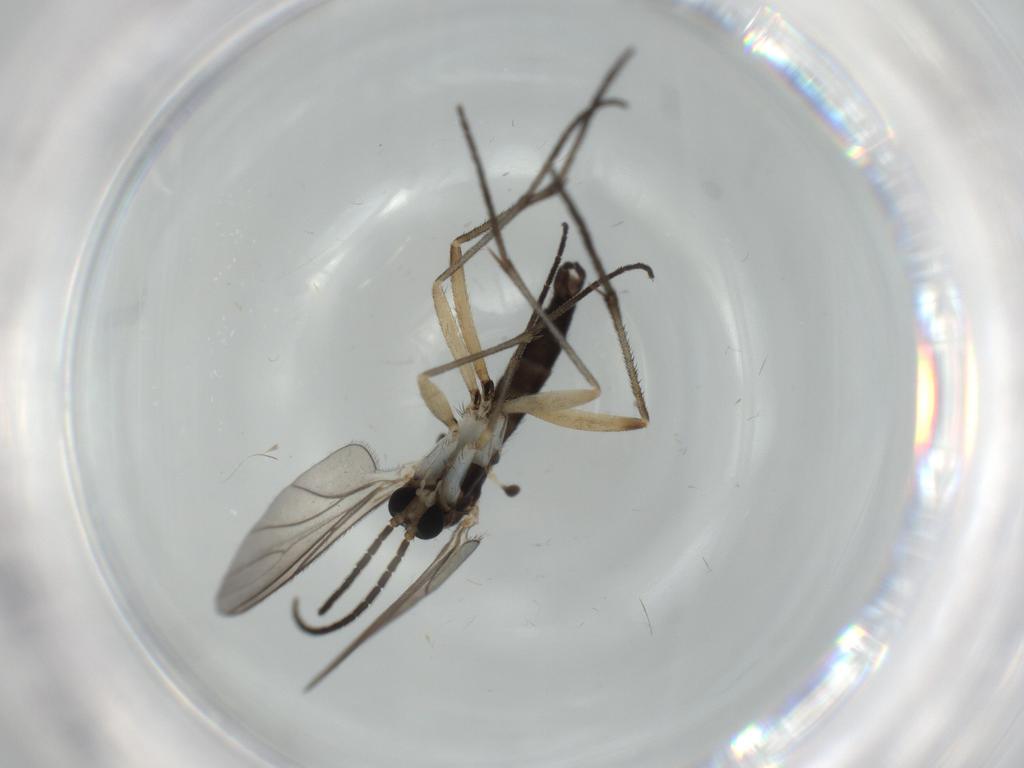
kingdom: Animalia
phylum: Arthropoda
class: Insecta
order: Diptera
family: Sciaridae
